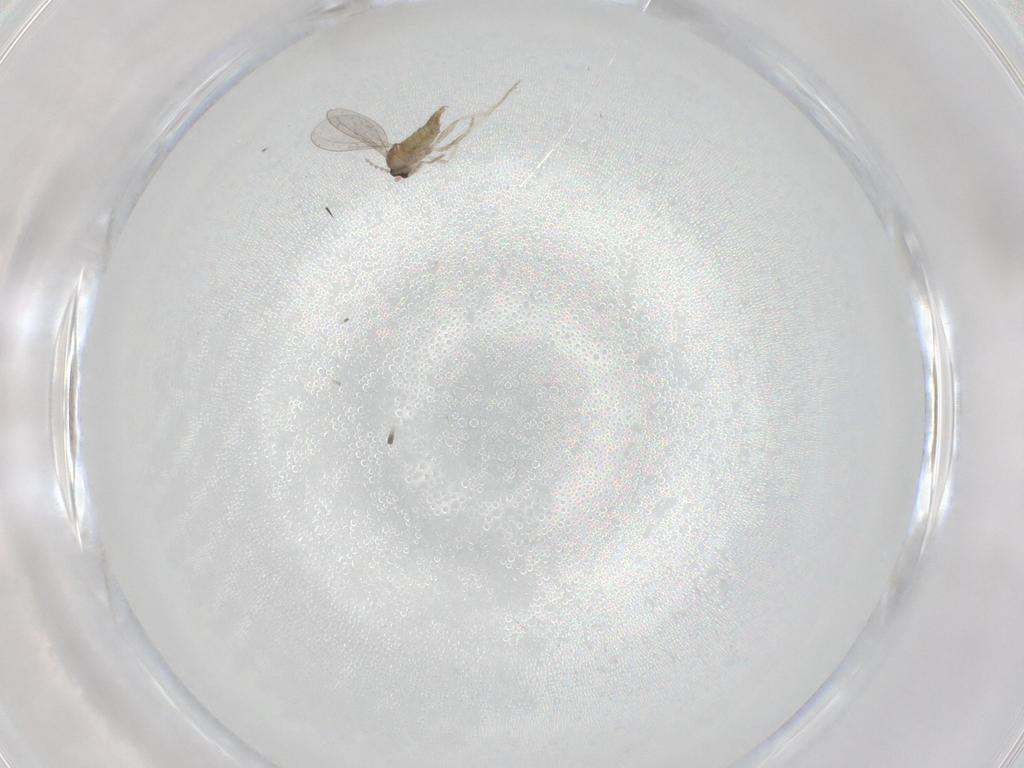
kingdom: Animalia
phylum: Arthropoda
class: Insecta
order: Diptera
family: Cecidomyiidae
